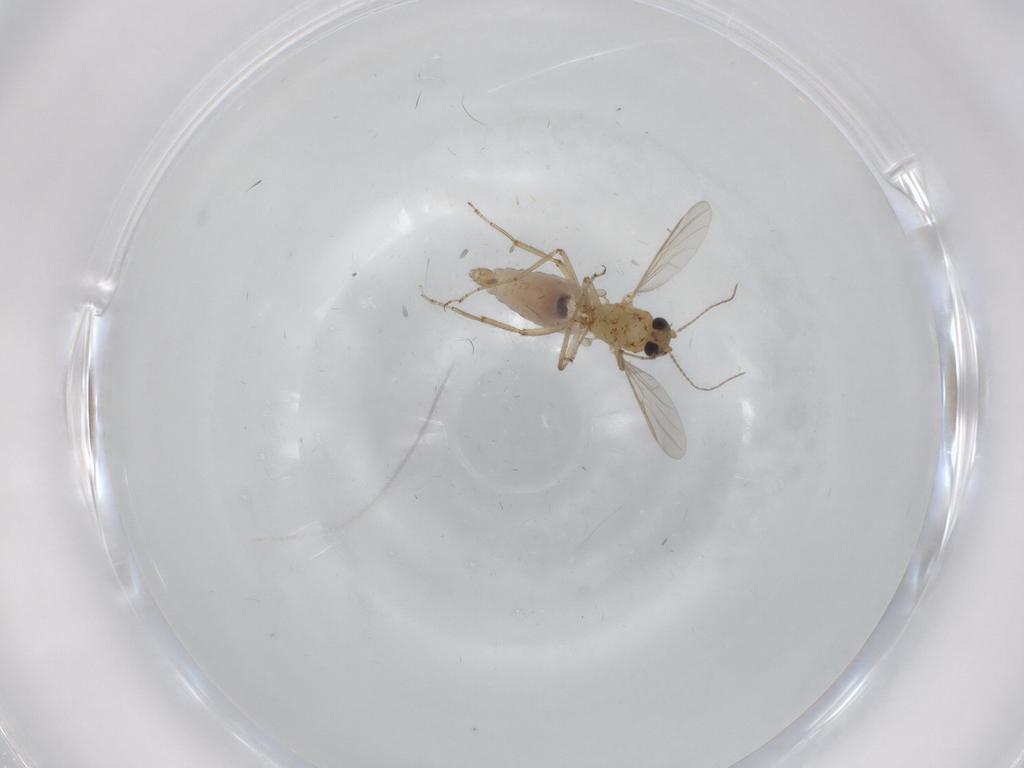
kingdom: Animalia
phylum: Arthropoda
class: Insecta
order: Diptera
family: Ceratopogonidae
